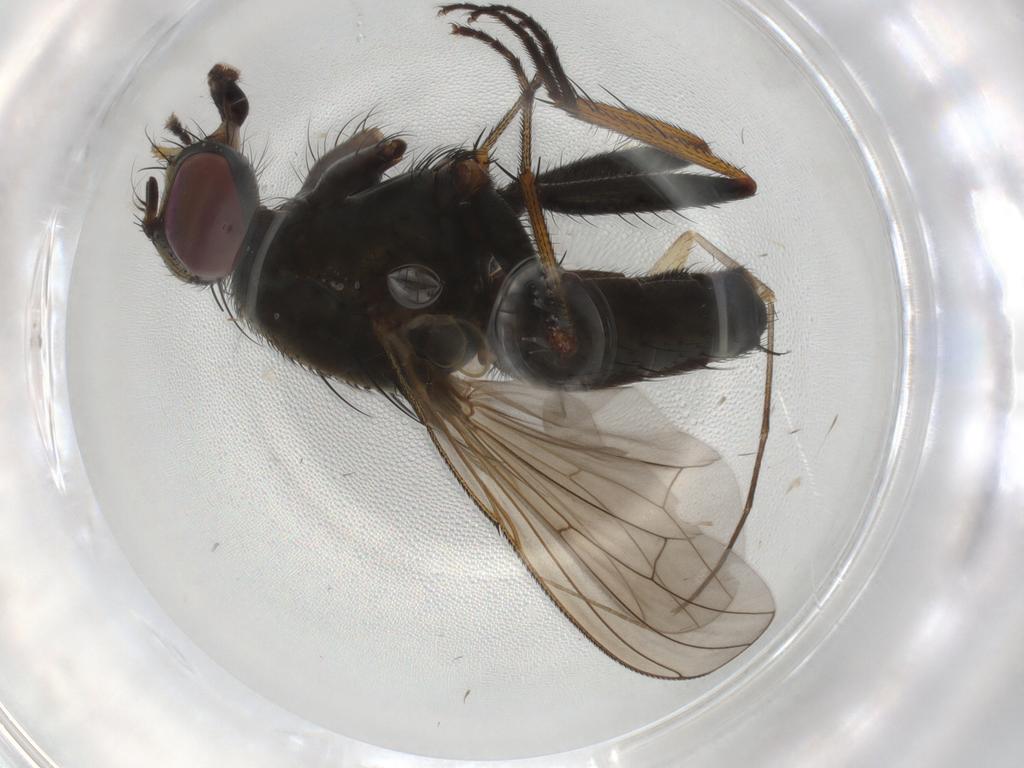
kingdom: Animalia
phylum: Arthropoda
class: Insecta
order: Diptera
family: Muscidae
